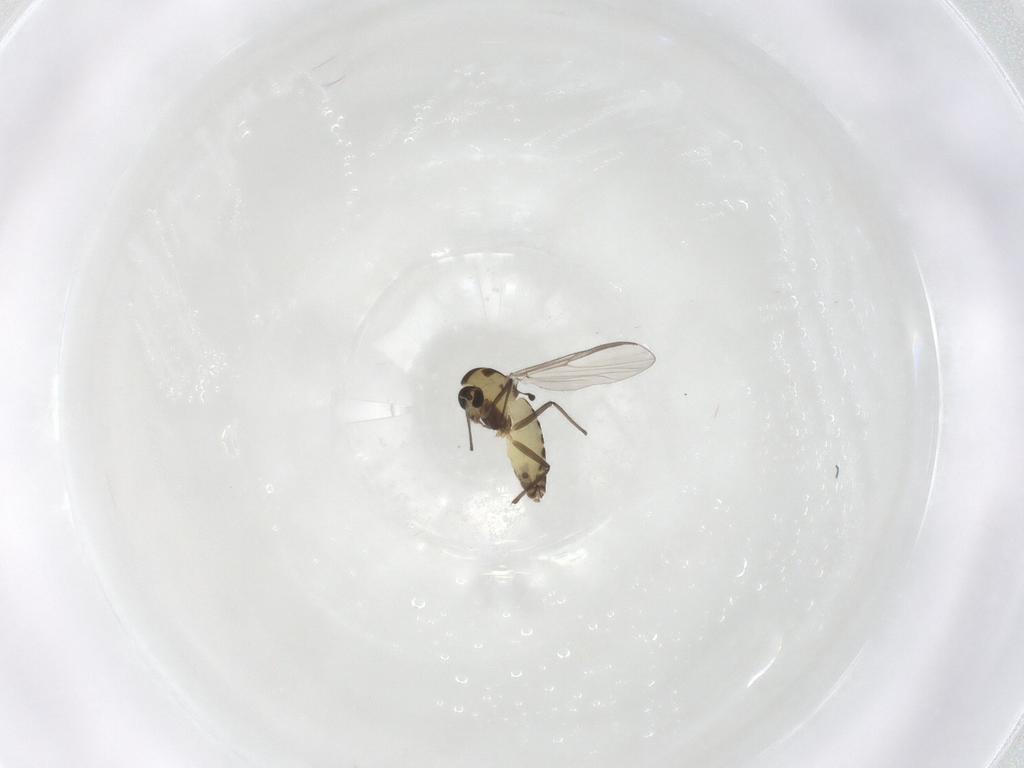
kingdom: Animalia
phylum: Arthropoda
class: Insecta
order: Diptera
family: Chironomidae
